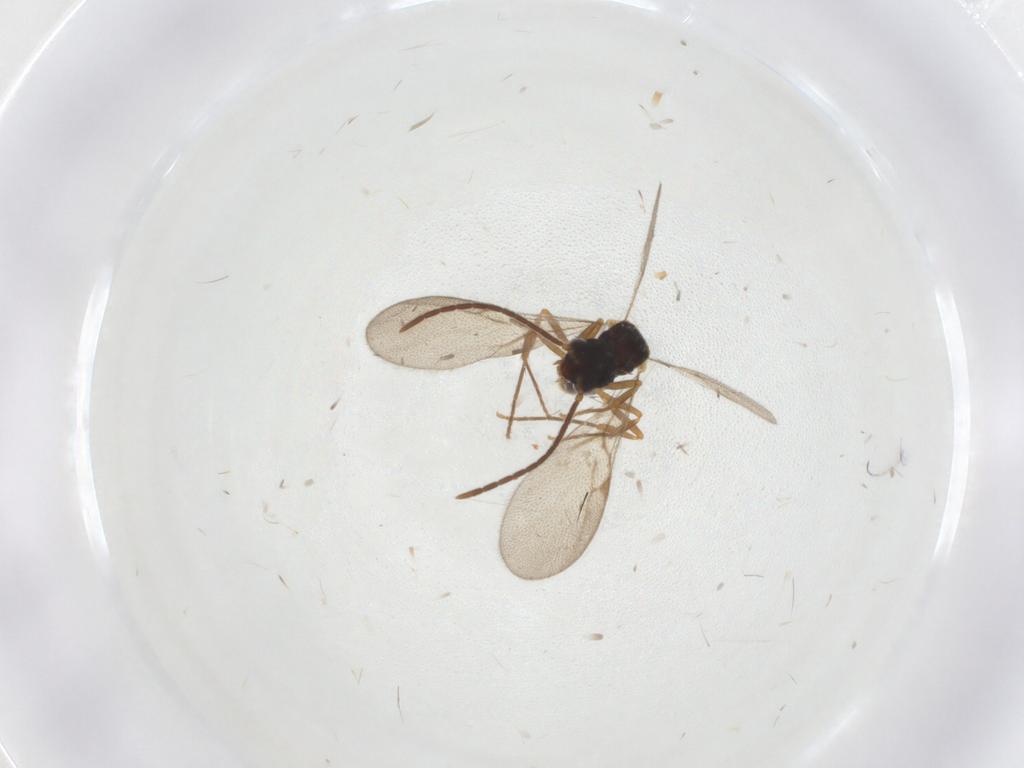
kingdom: Animalia
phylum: Arthropoda
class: Insecta
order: Hymenoptera
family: Formicidae
